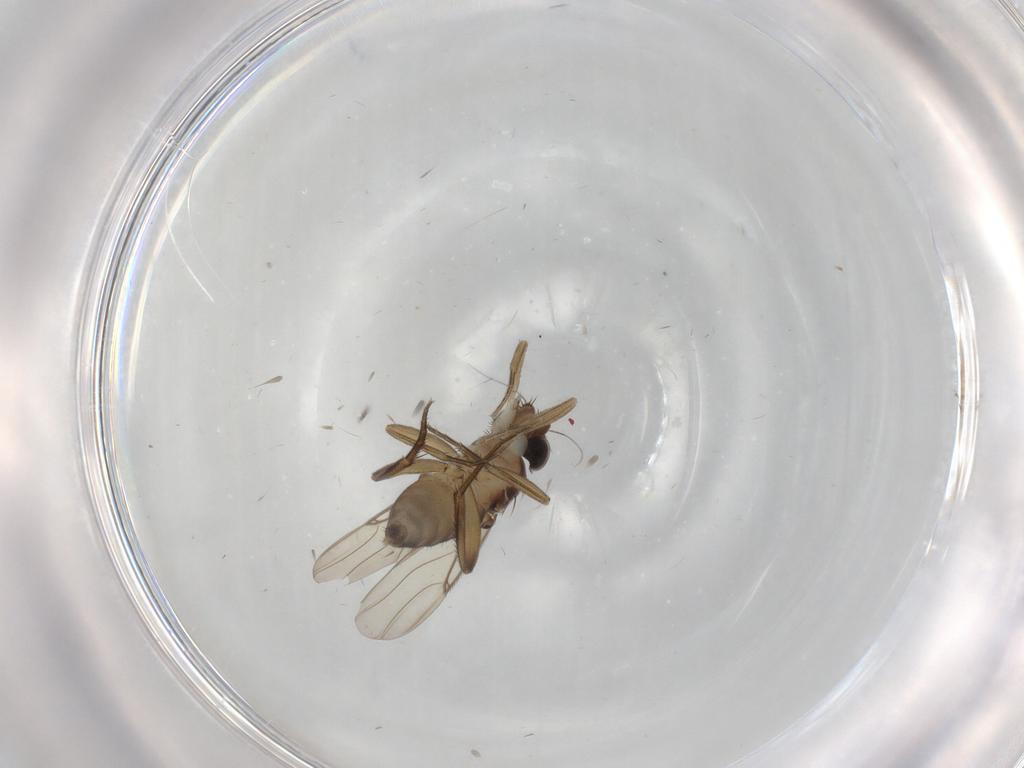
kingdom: Animalia
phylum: Arthropoda
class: Insecta
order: Diptera
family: Phoridae
